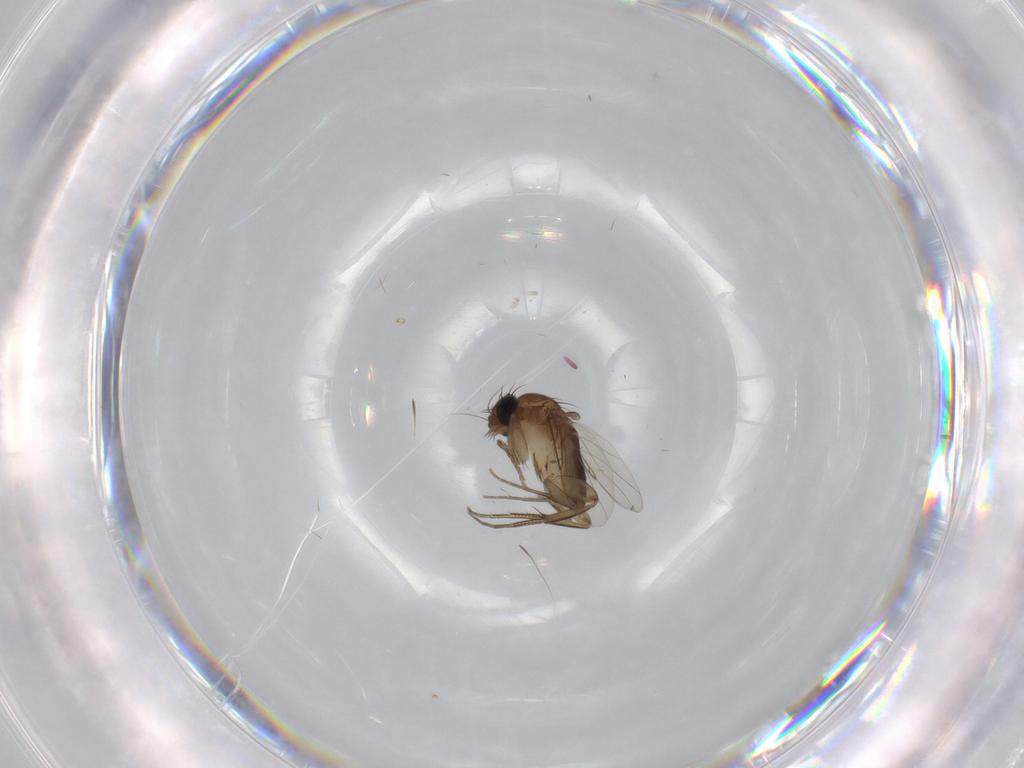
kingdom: Animalia
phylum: Arthropoda
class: Insecta
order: Diptera
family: Phoridae
